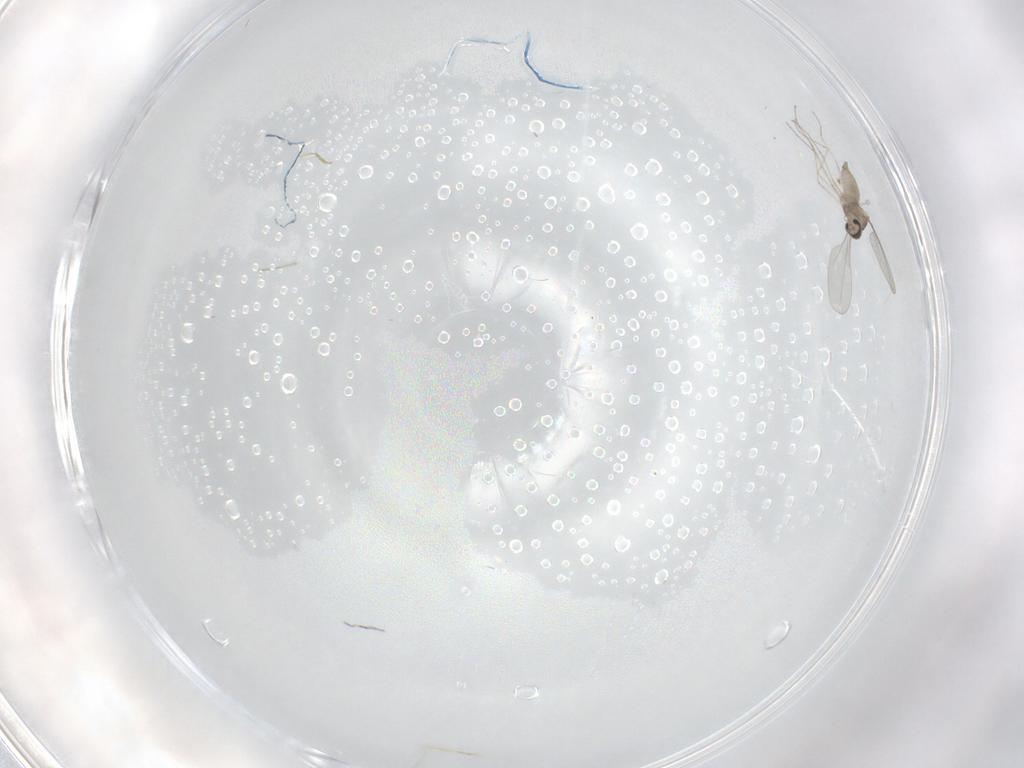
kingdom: Animalia
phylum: Arthropoda
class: Insecta
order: Diptera
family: Cecidomyiidae
